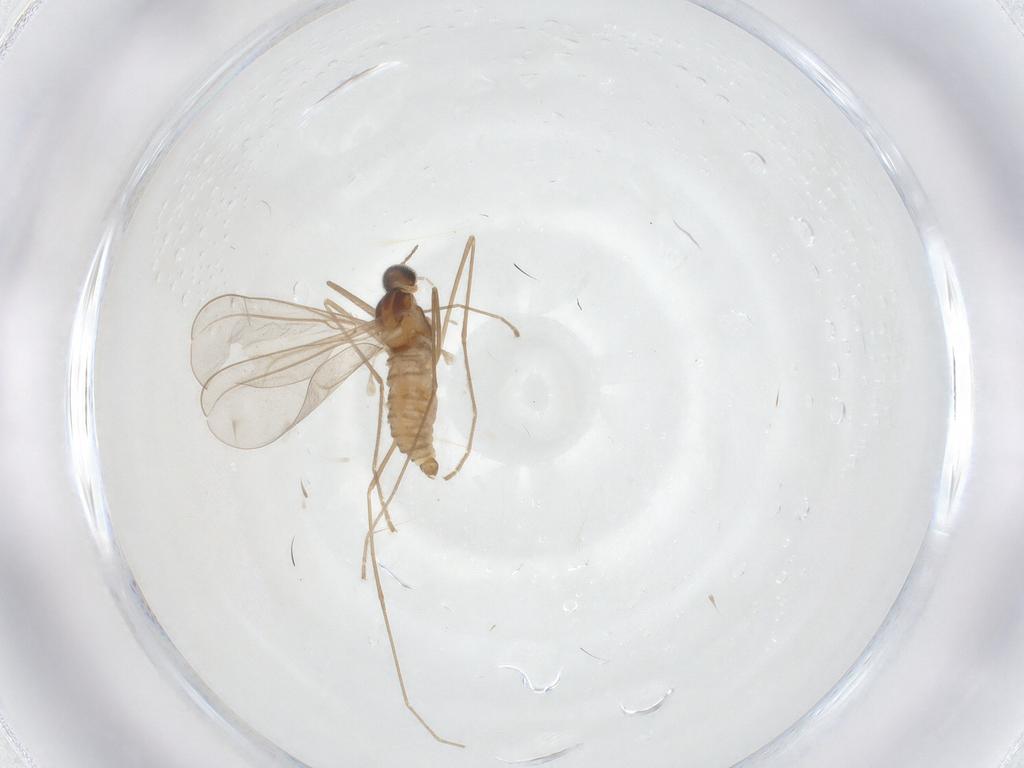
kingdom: Animalia
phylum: Arthropoda
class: Insecta
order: Diptera
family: Cecidomyiidae
